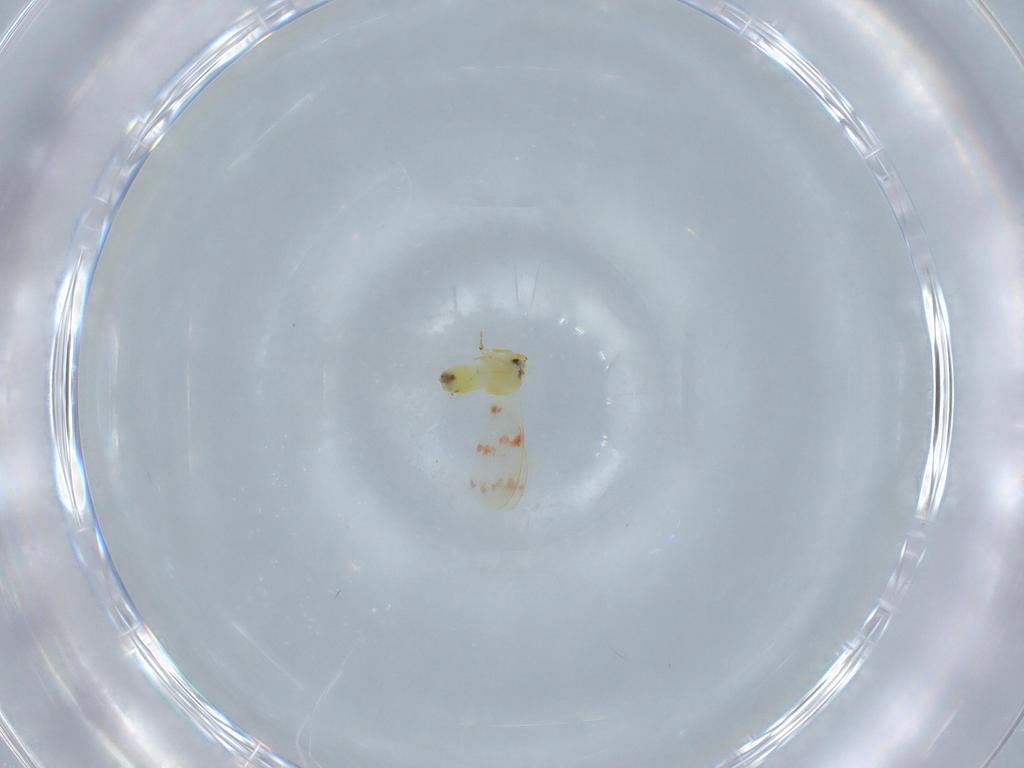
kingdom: Animalia
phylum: Arthropoda
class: Insecta
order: Hemiptera
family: Aleyrodidae
